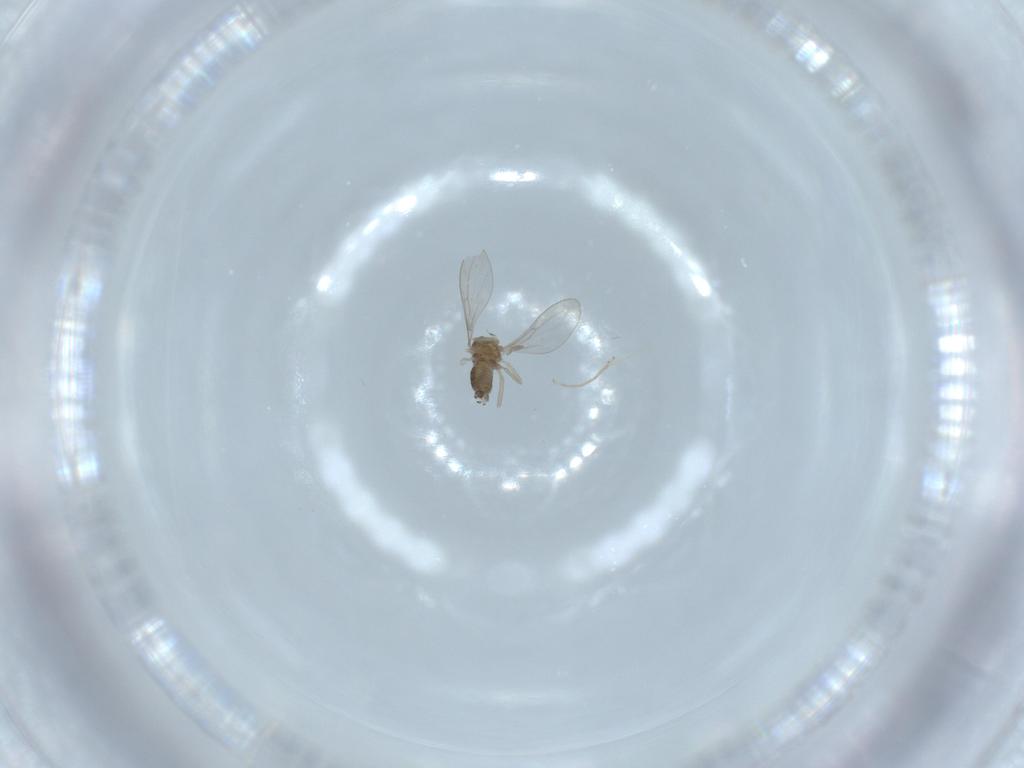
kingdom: Animalia
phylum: Arthropoda
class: Insecta
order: Diptera
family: Cecidomyiidae
